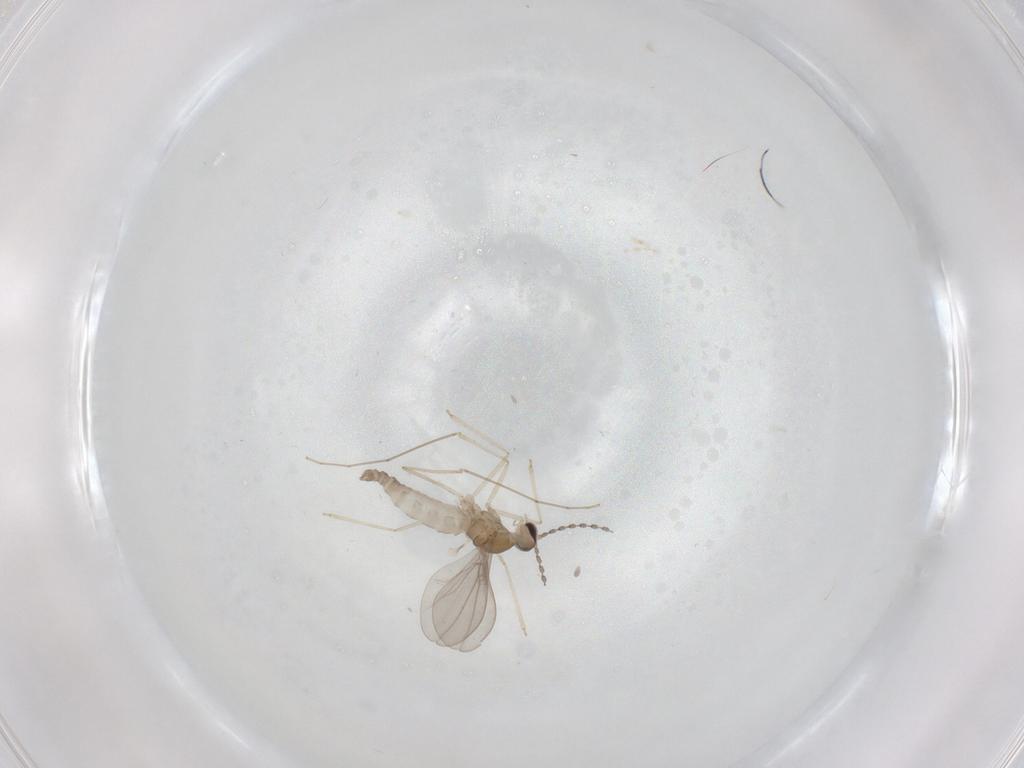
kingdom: Animalia
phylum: Arthropoda
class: Insecta
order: Diptera
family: Cecidomyiidae
